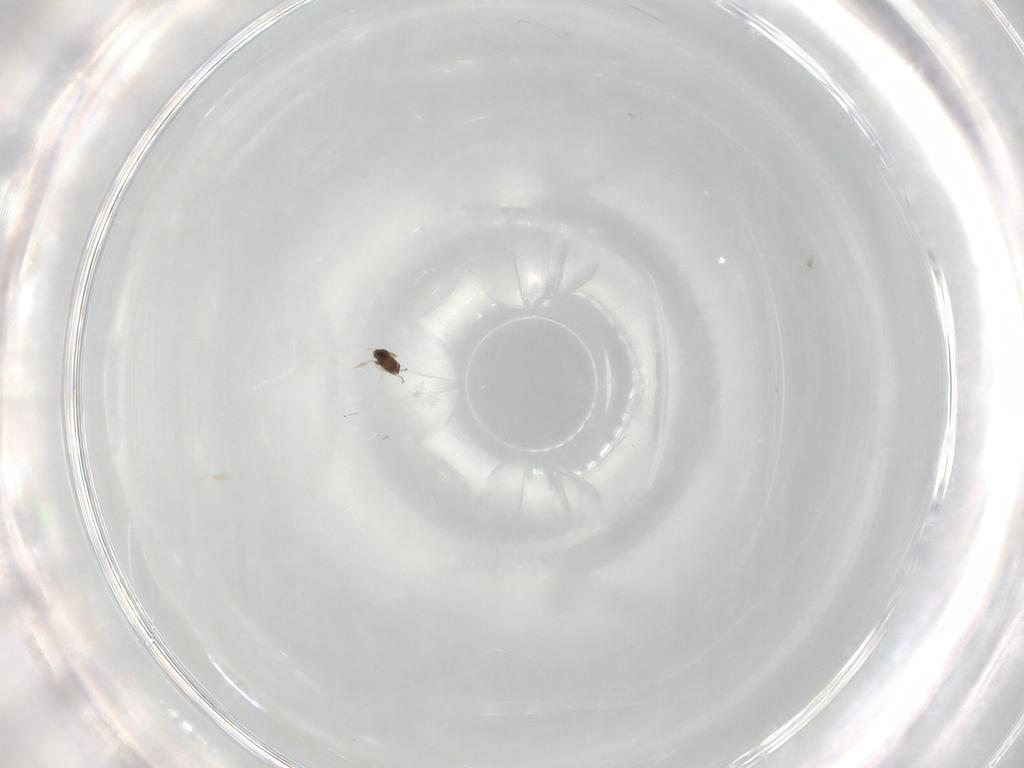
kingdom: Animalia
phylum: Arthropoda
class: Insecta
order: Hymenoptera
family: Mymaridae
